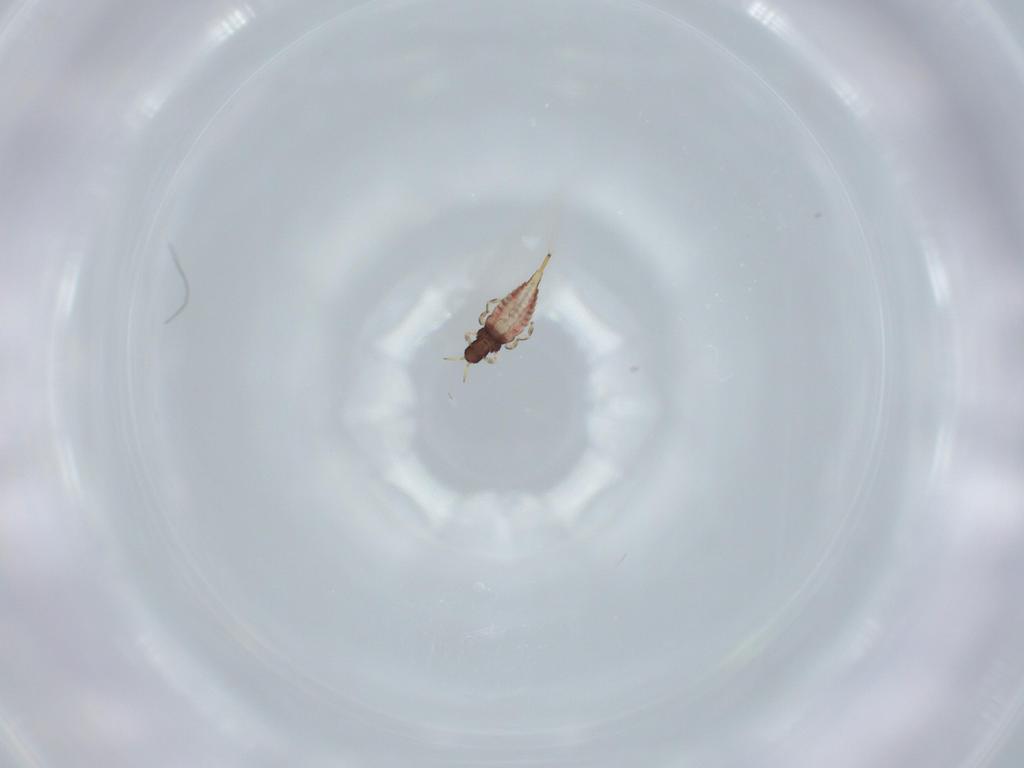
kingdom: Animalia
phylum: Arthropoda
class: Insecta
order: Thysanoptera
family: Phlaeothripidae
